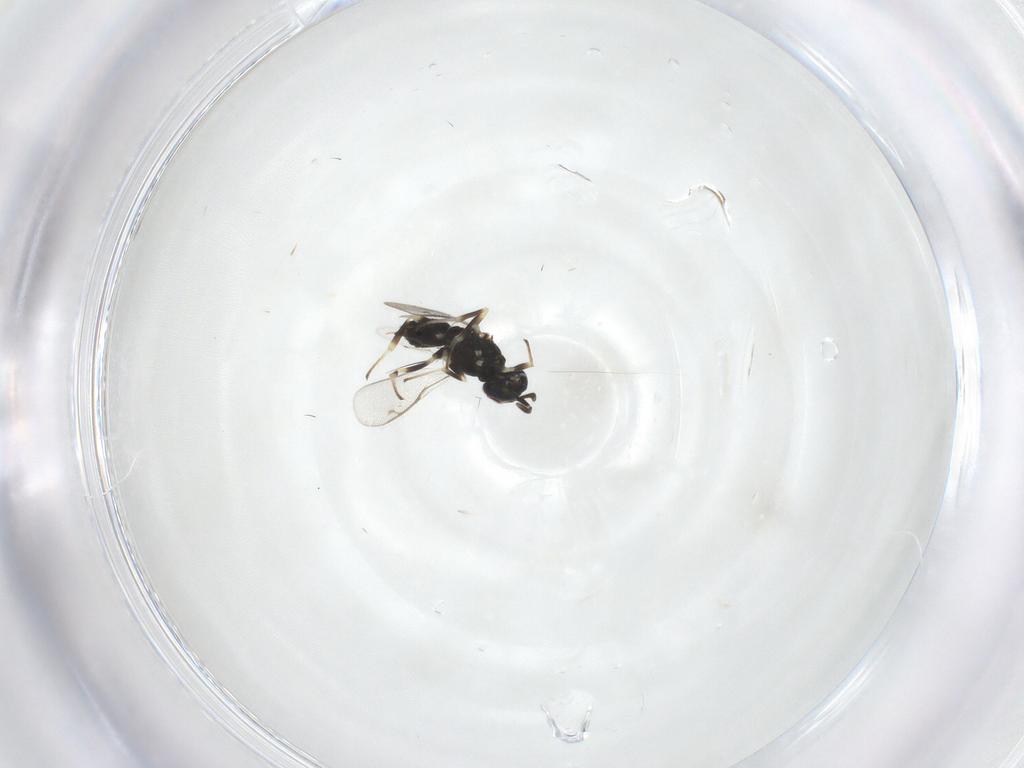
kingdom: Animalia
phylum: Arthropoda
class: Insecta
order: Hymenoptera
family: Eupelmidae
